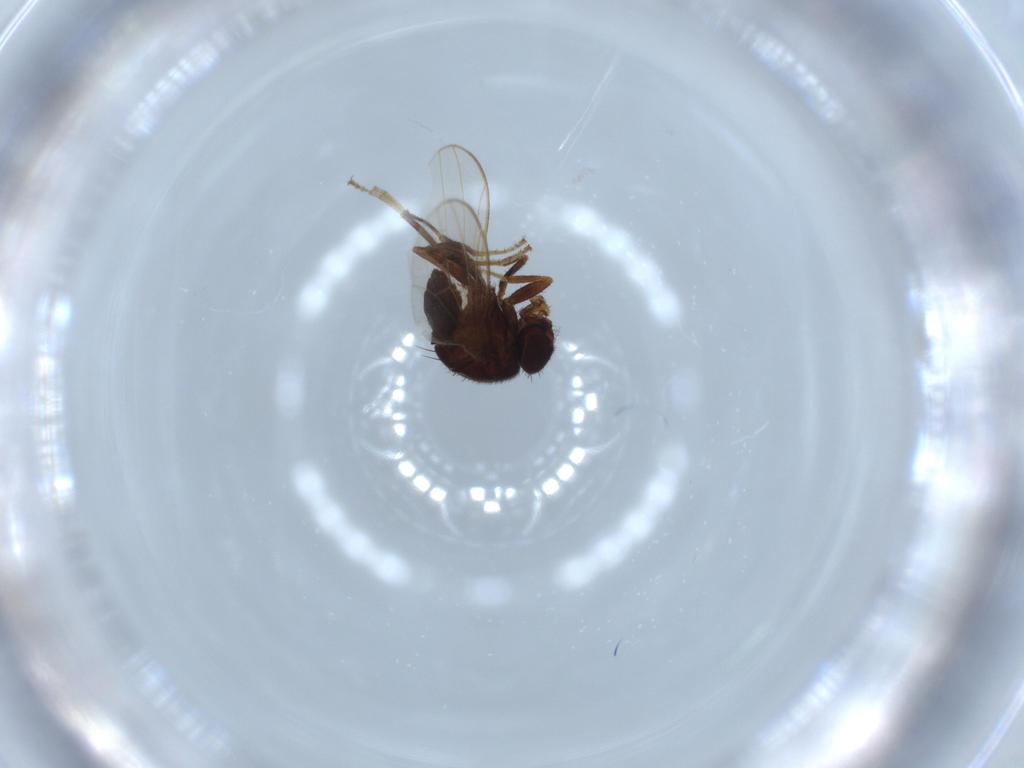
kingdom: Animalia
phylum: Arthropoda
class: Insecta
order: Diptera
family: Drosophilidae
